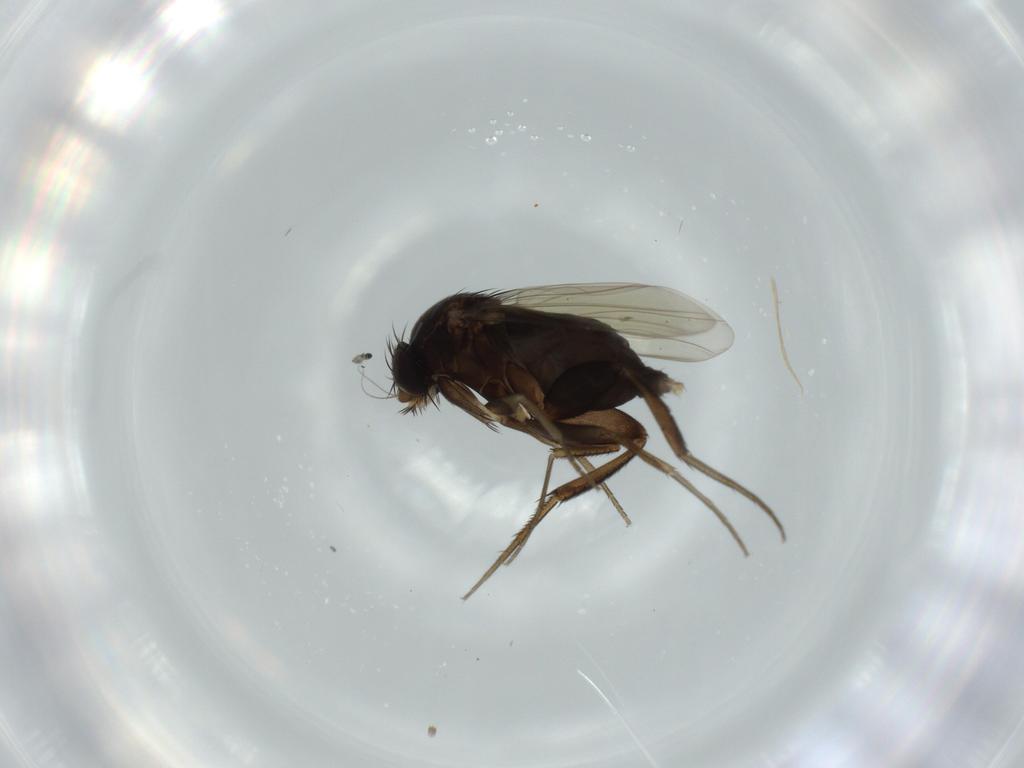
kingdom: Animalia
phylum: Arthropoda
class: Insecta
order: Diptera
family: Phoridae
